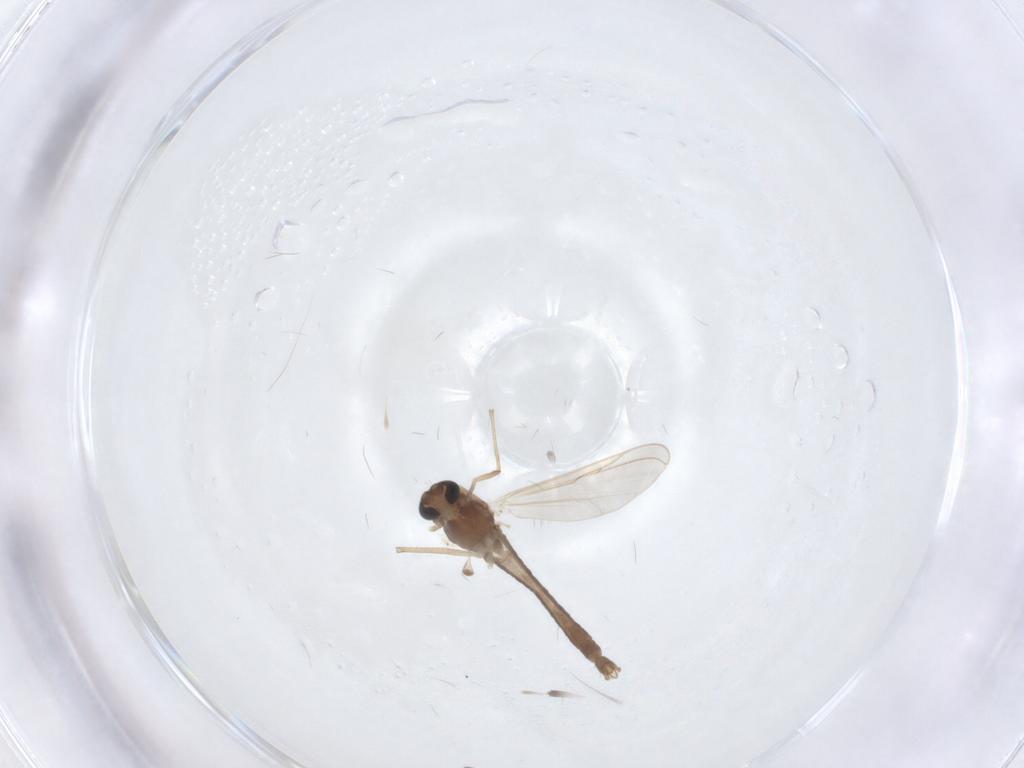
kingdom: Animalia
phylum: Arthropoda
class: Insecta
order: Diptera
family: Chironomidae
